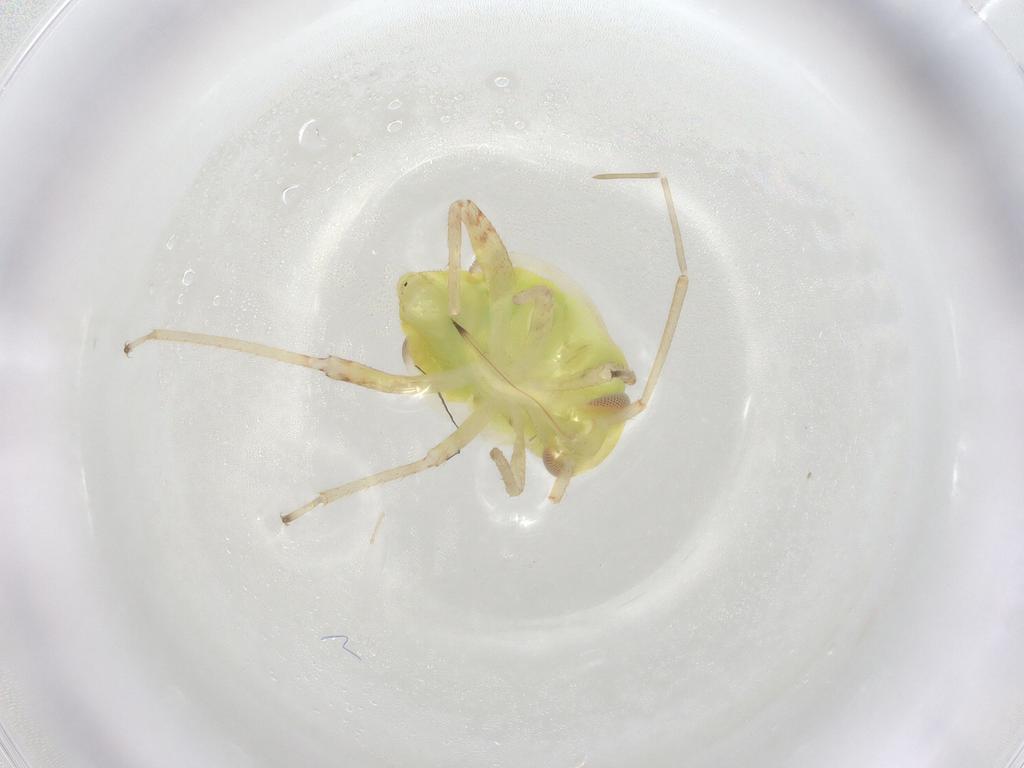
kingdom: Animalia
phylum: Arthropoda
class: Insecta
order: Hemiptera
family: Miridae
